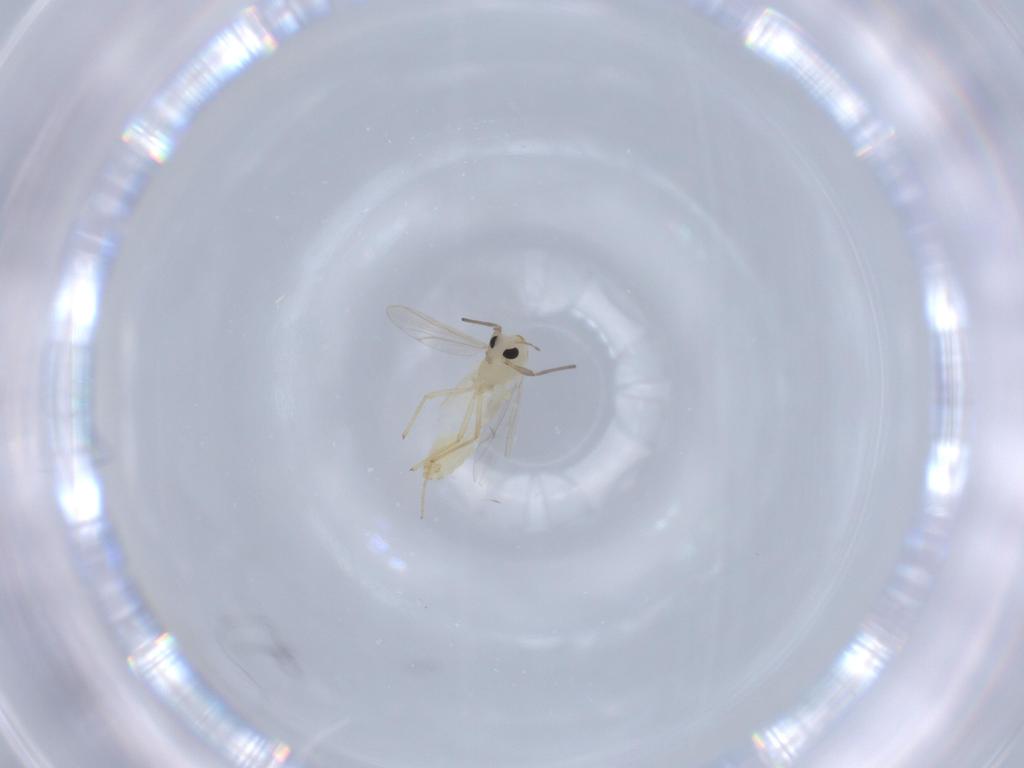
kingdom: Animalia
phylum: Arthropoda
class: Insecta
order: Diptera
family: Chironomidae
